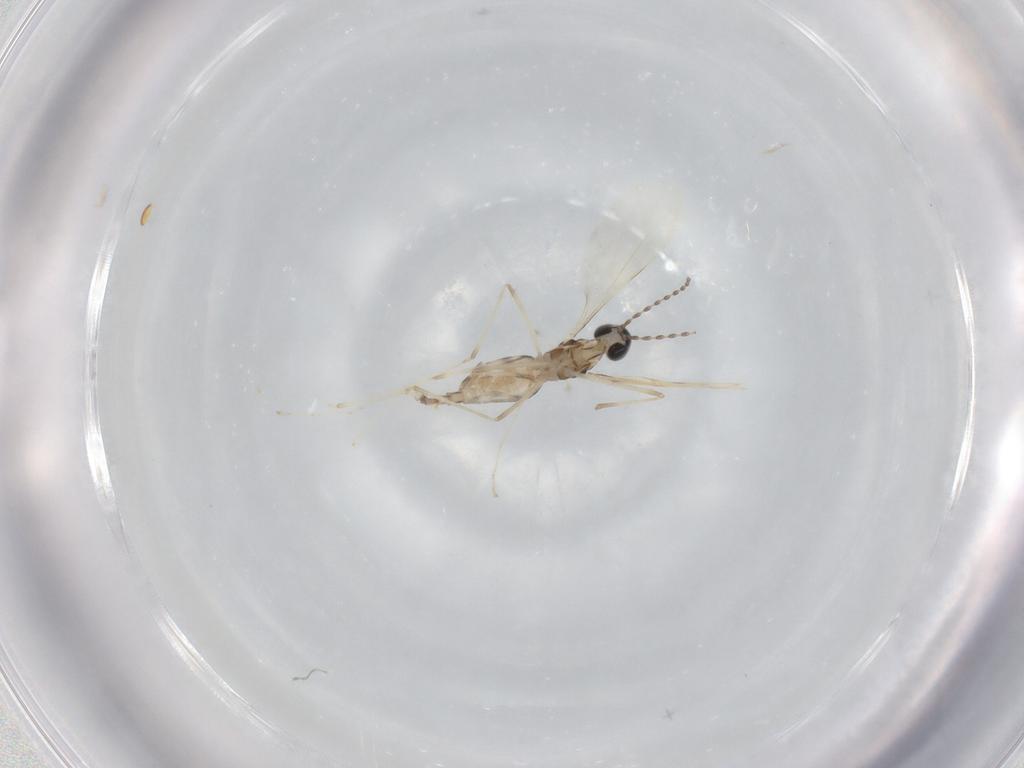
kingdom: Animalia
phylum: Arthropoda
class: Insecta
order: Diptera
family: Cecidomyiidae
